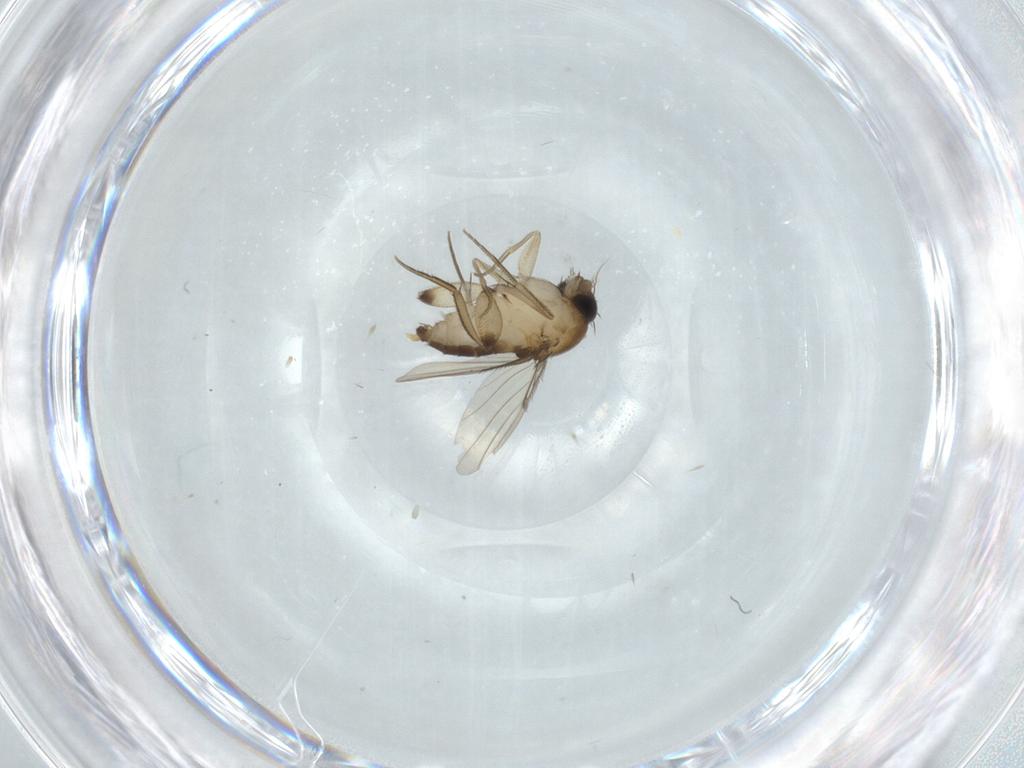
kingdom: Animalia
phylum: Arthropoda
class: Insecta
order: Diptera
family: Phoridae
